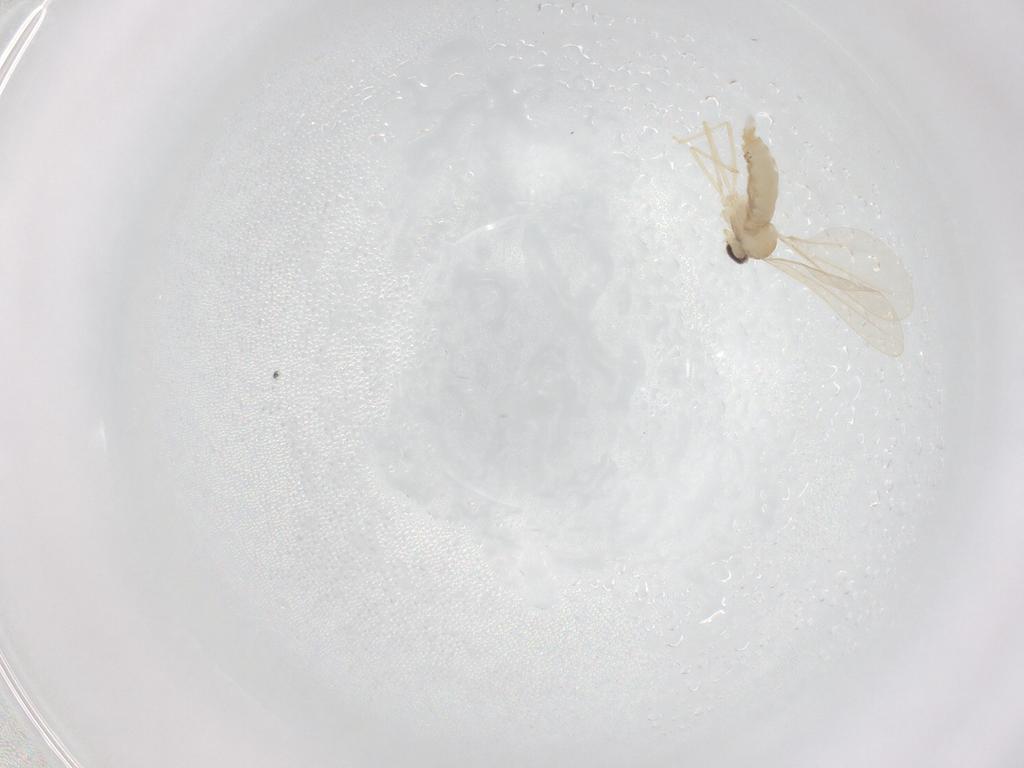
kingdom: Animalia
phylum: Arthropoda
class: Insecta
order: Diptera
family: Cecidomyiidae
